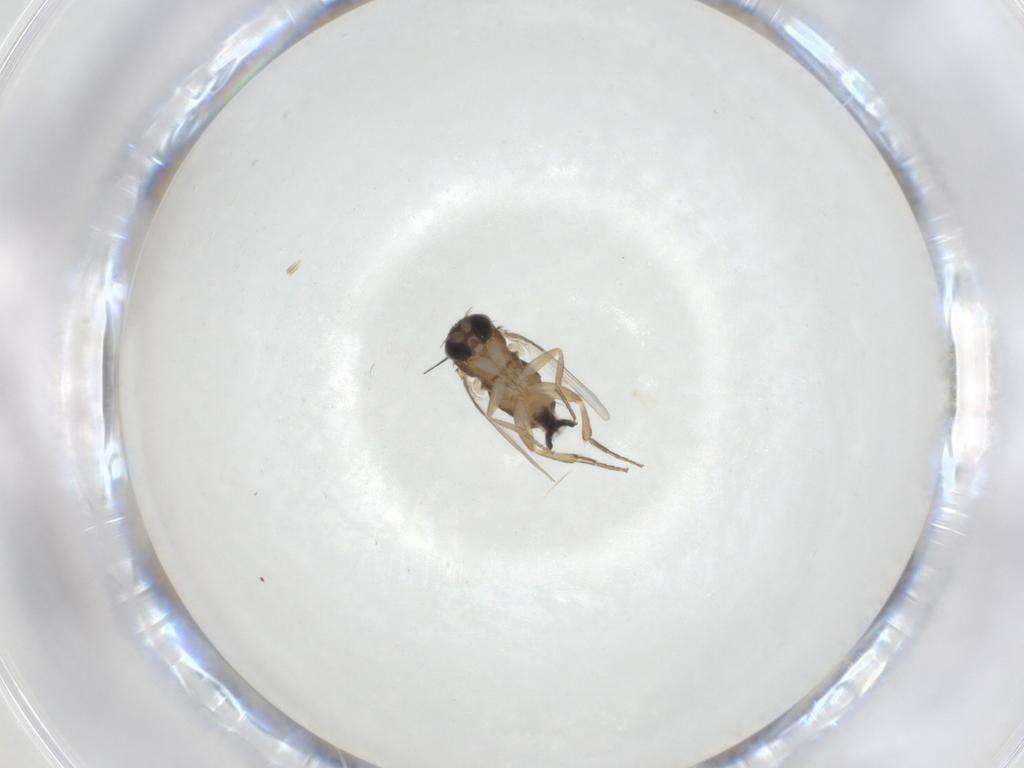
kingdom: Animalia
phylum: Arthropoda
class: Insecta
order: Diptera
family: Phoridae
